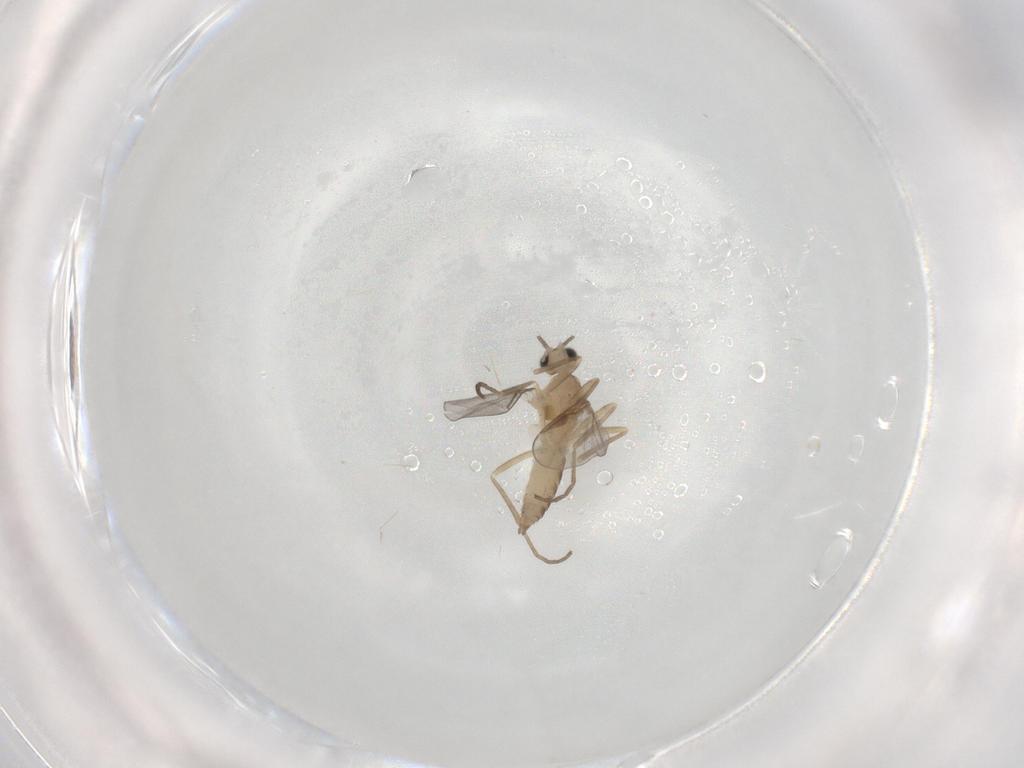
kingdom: Animalia
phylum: Arthropoda
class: Insecta
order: Diptera
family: Cecidomyiidae
